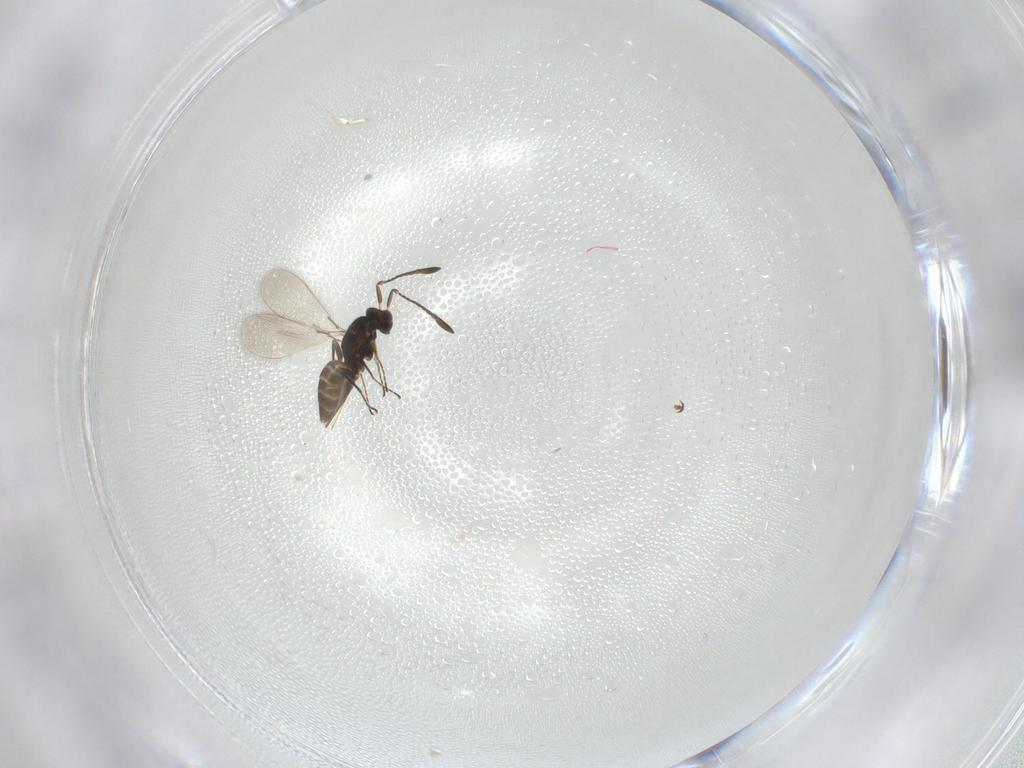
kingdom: Animalia
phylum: Arthropoda
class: Insecta
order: Hymenoptera
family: Mymaridae
